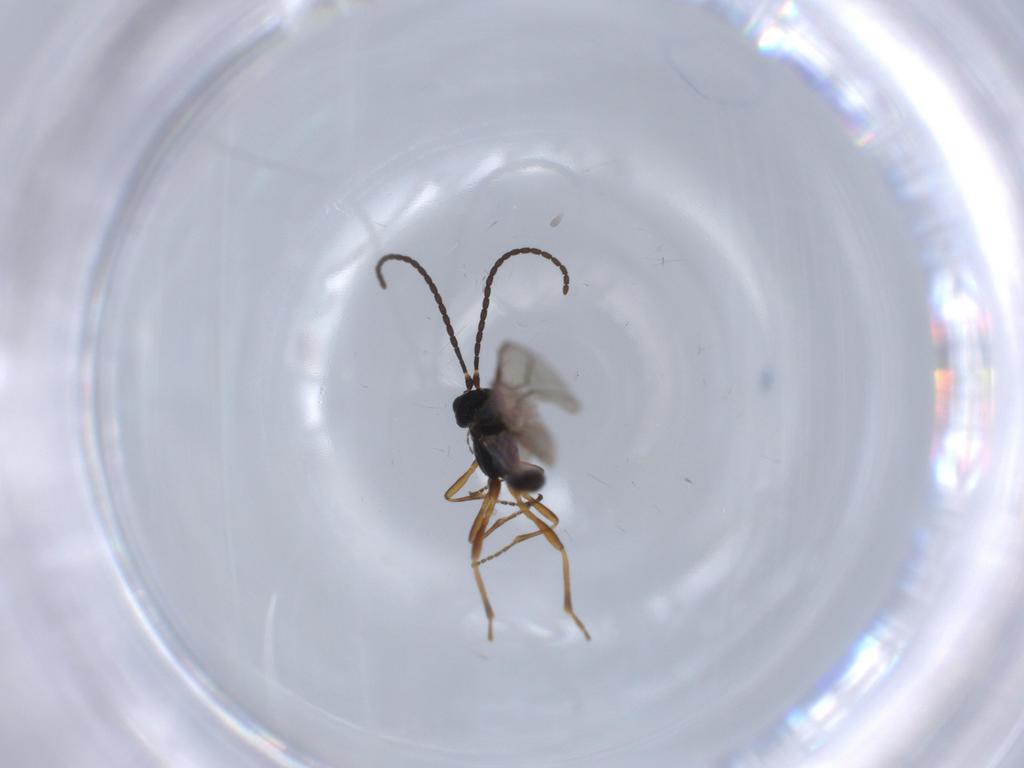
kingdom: Animalia
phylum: Arthropoda
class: Insecta
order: Hymenoptera
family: Braconidae
